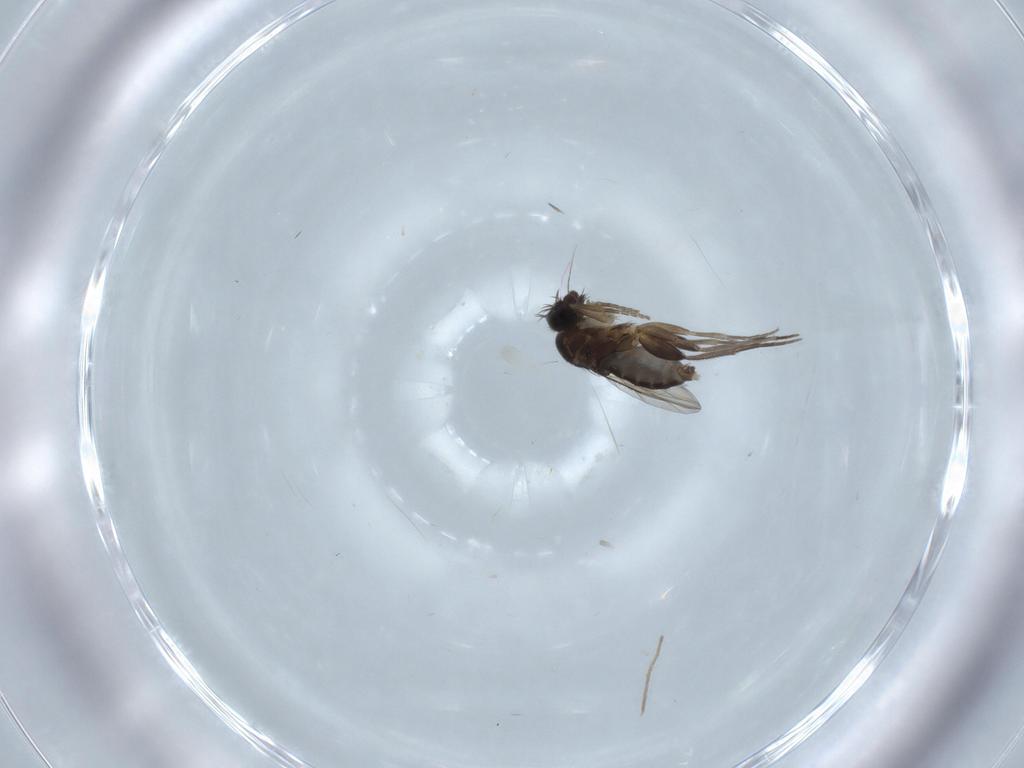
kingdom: Animalia
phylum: Arthropoda
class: Insecta
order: Diptera
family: Phoridae
